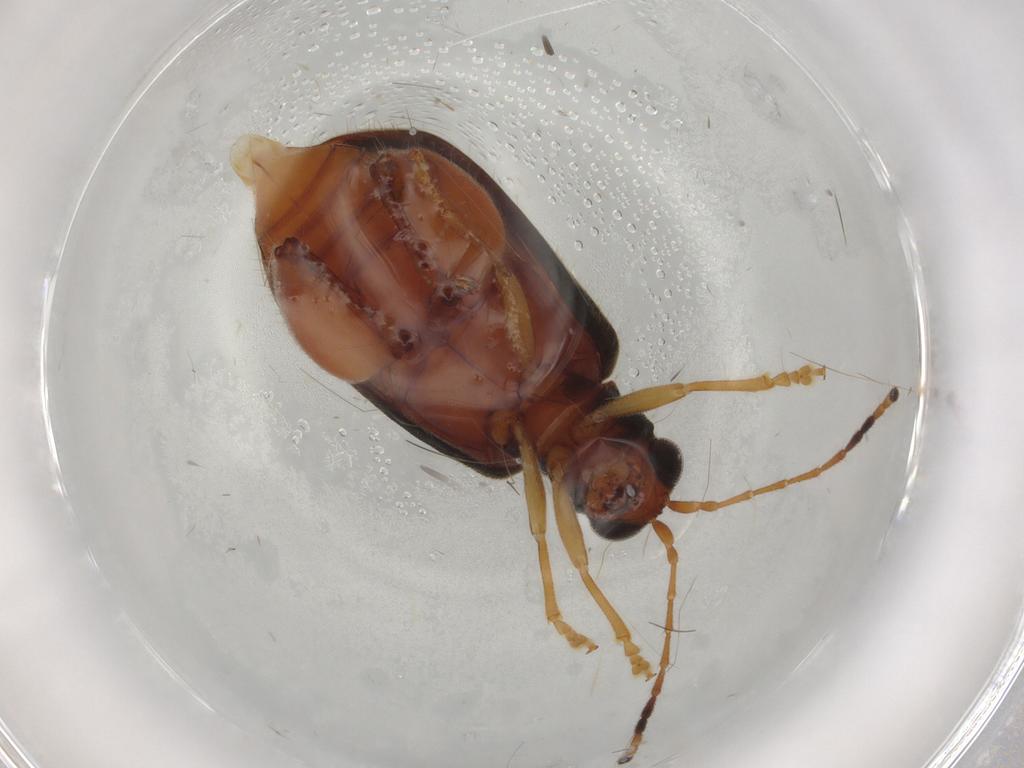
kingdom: Animalia
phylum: Arthropoda
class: Insecta
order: Coleoptera
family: Chrysomelidae
